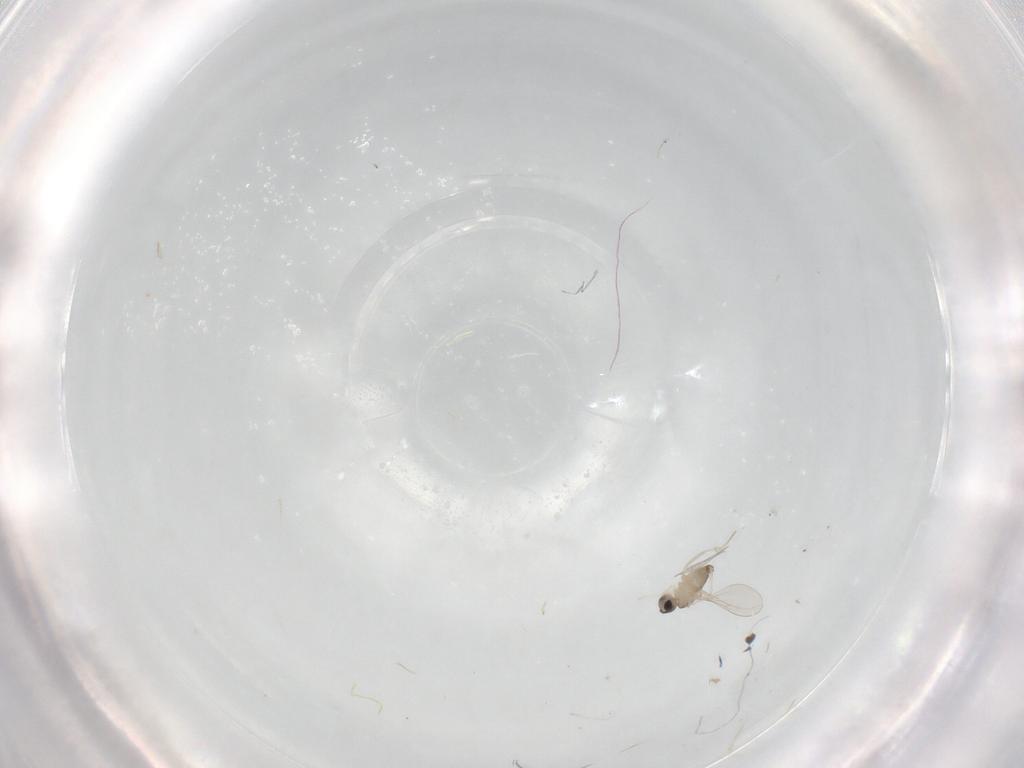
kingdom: Animalia
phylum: Arthropoda
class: Insecta
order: Diptera
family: Cecidomyiidae
